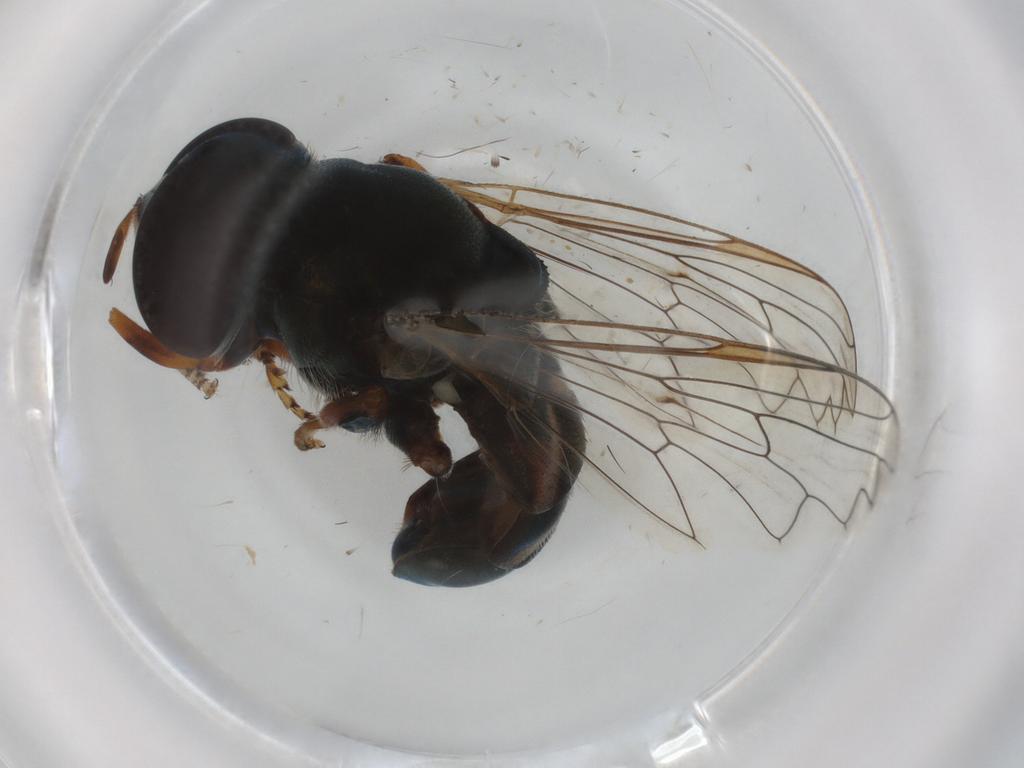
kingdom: Animalia
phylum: Arthropoda
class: Insecta
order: Diptera
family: Syrphidae
